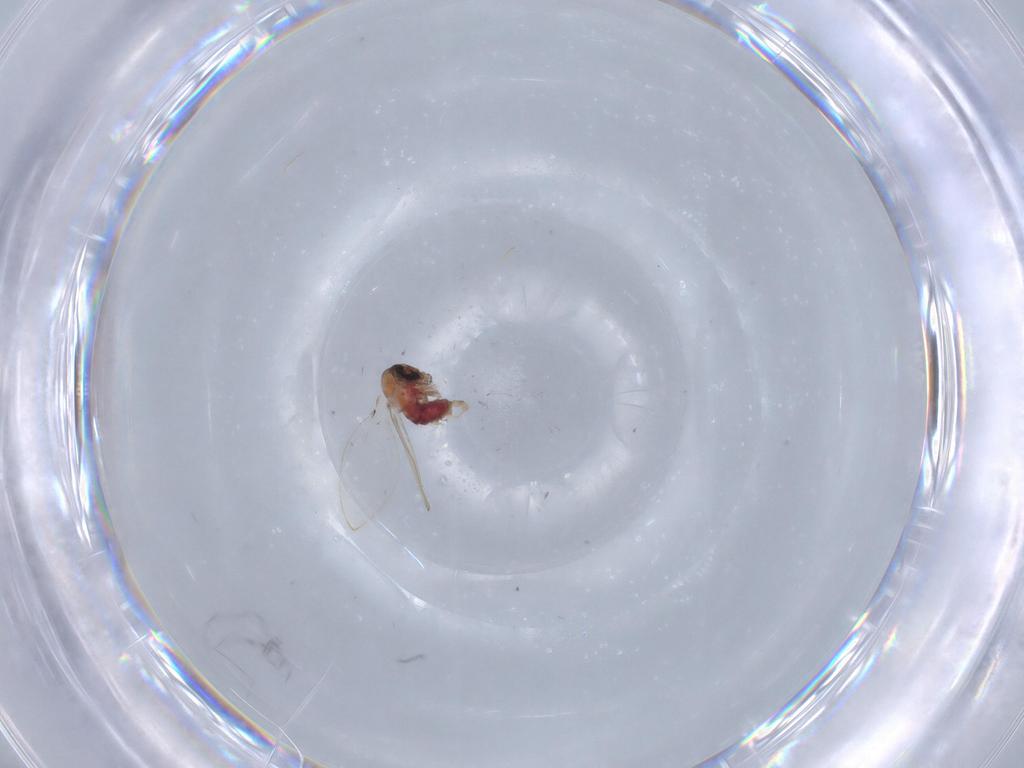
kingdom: Animalia
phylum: Arthropoda
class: Insecta
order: Diptera
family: Psychodidae
